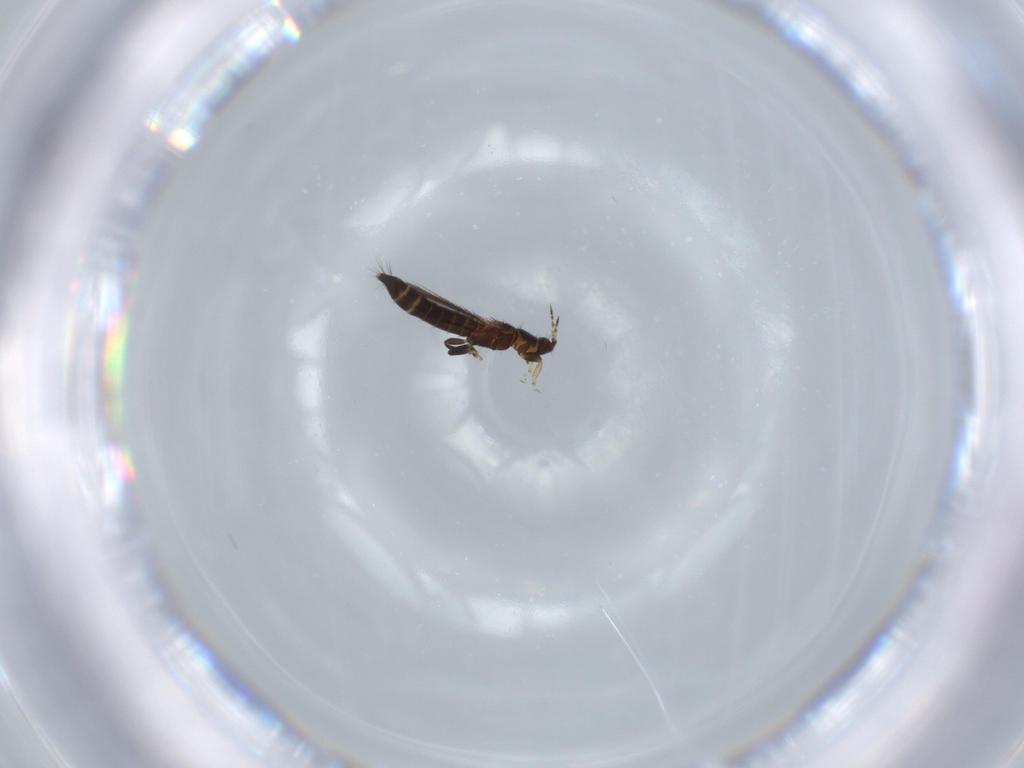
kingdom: Animalia
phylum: Arthropoda
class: Insecta
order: Thysanoptera
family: Thripidae
